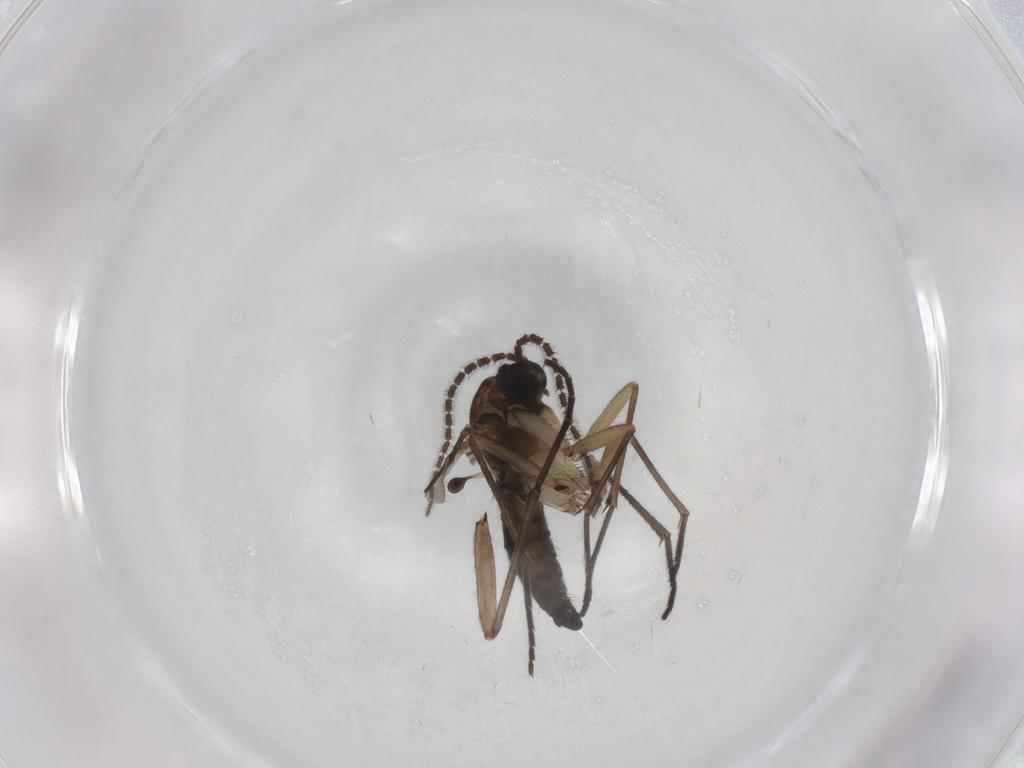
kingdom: Animalia
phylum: Arthropoda
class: Insecta
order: Diptera
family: Sciaridae
